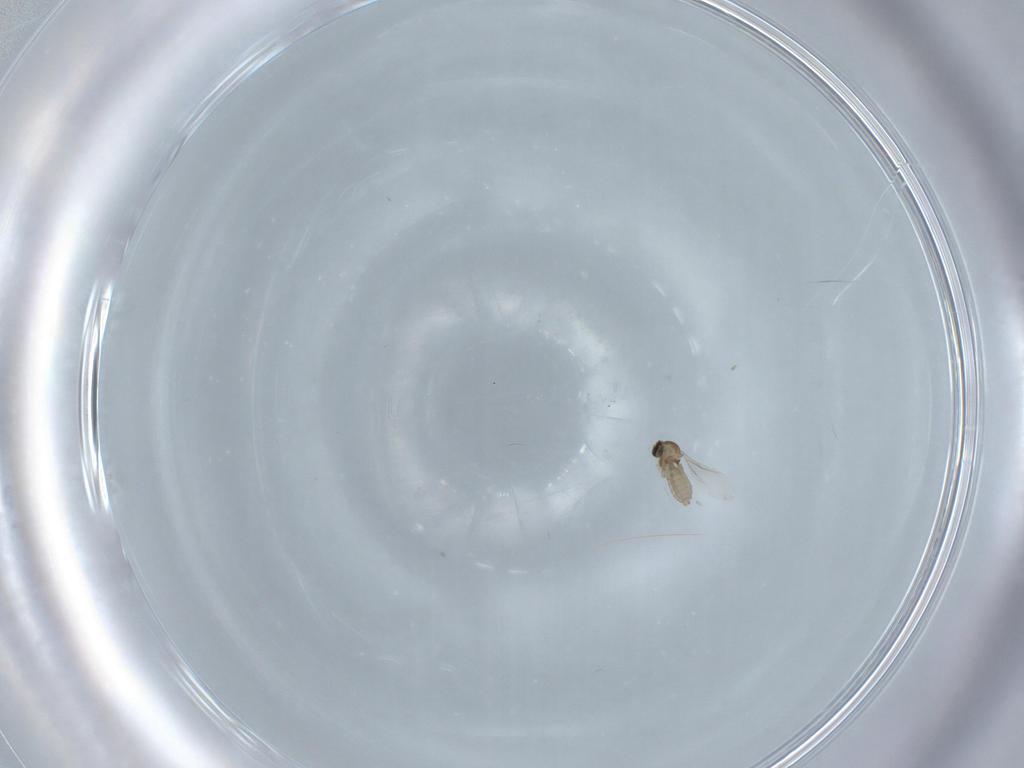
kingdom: Animalia
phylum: Arthropoda
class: Insecta
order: Diptera
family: Cecidomyiidae
